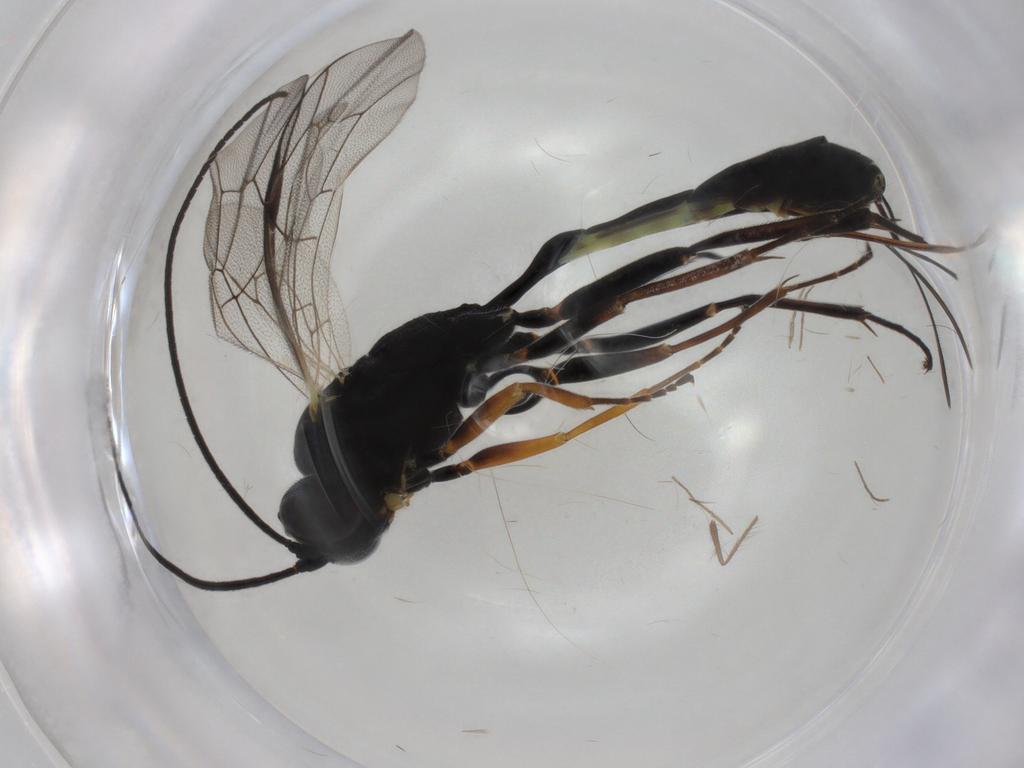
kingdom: Animalia
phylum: Arthropoda
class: Insecta
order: Hymenoptera
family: Ichneumonidae
